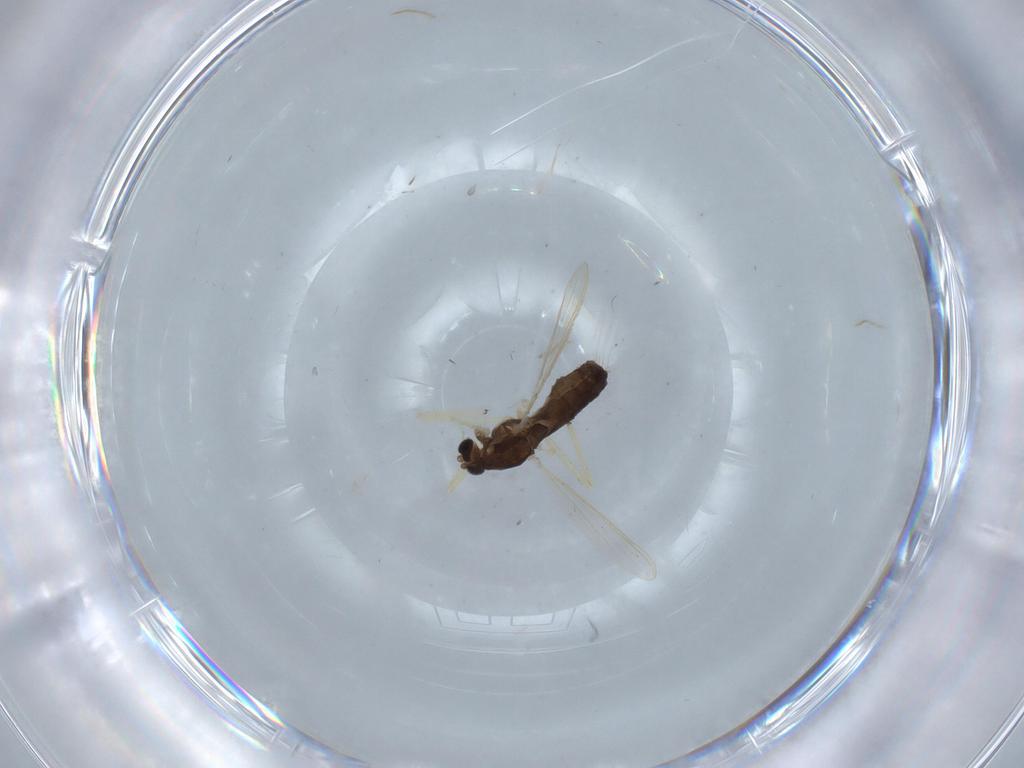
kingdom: Animalia
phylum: Arthropoda
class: Insecta
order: Diptera
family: Chironomidae
